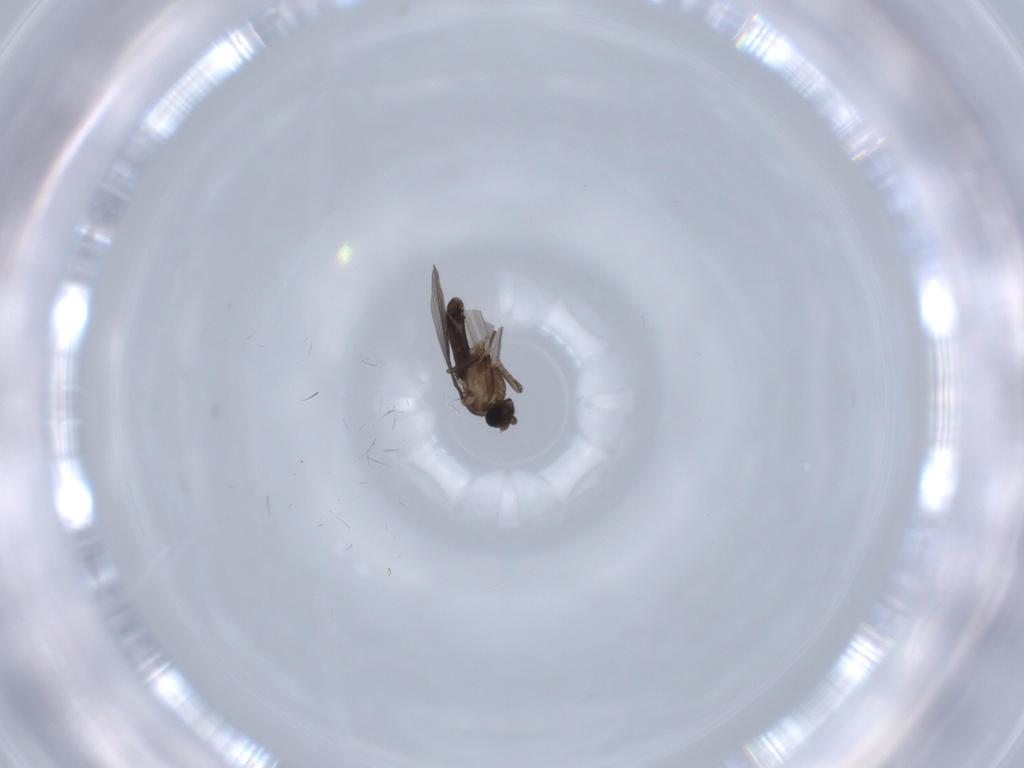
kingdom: Animalia
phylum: Arthropoda
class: Insecta
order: Diptera
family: Phoridae
